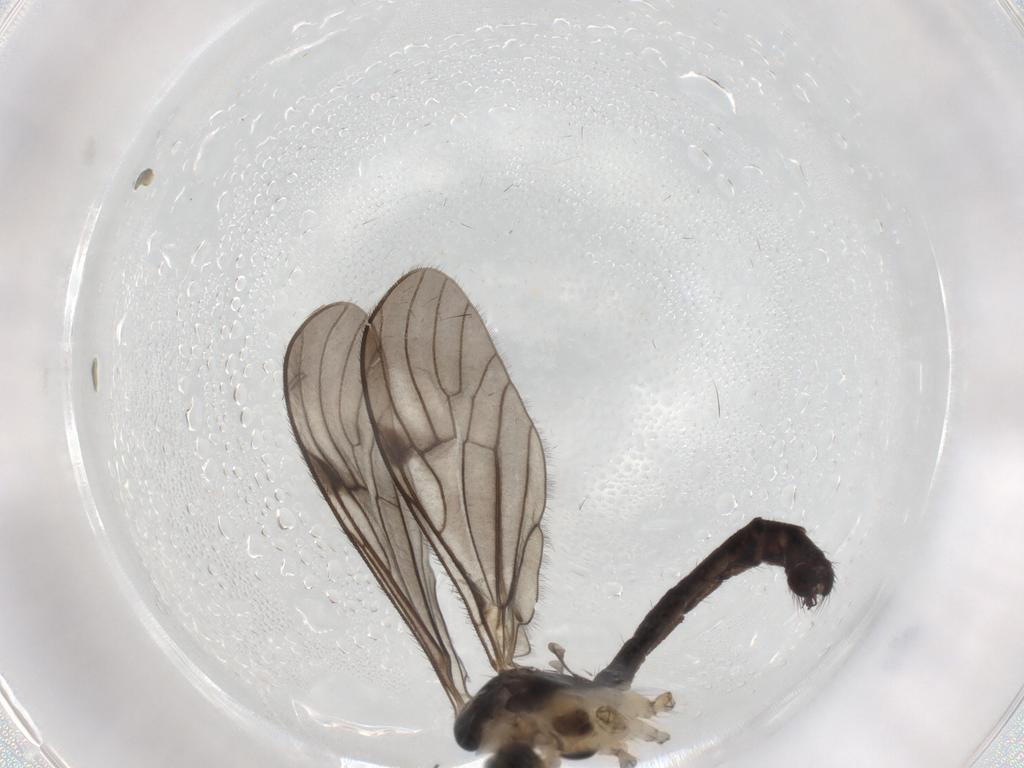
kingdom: Animalia
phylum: Arthropoda
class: Insecta
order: Diptera
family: Limoniidae
